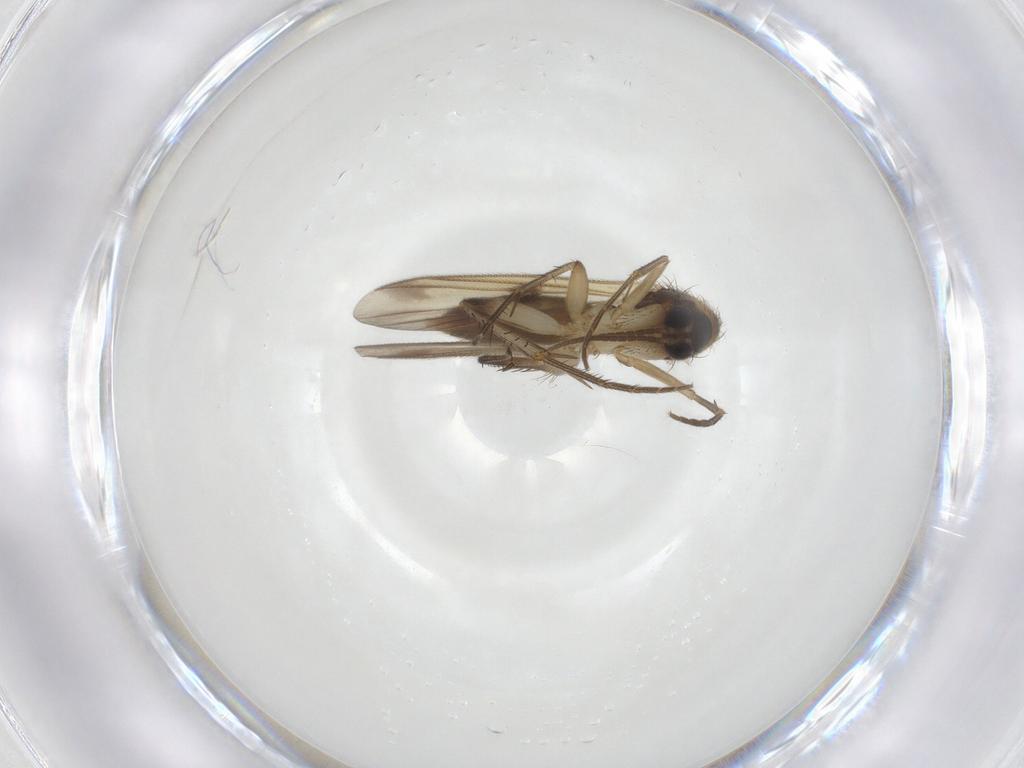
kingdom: Animalia
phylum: Arthropoda
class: Insecta
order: Diptera
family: Mycetophilidae
